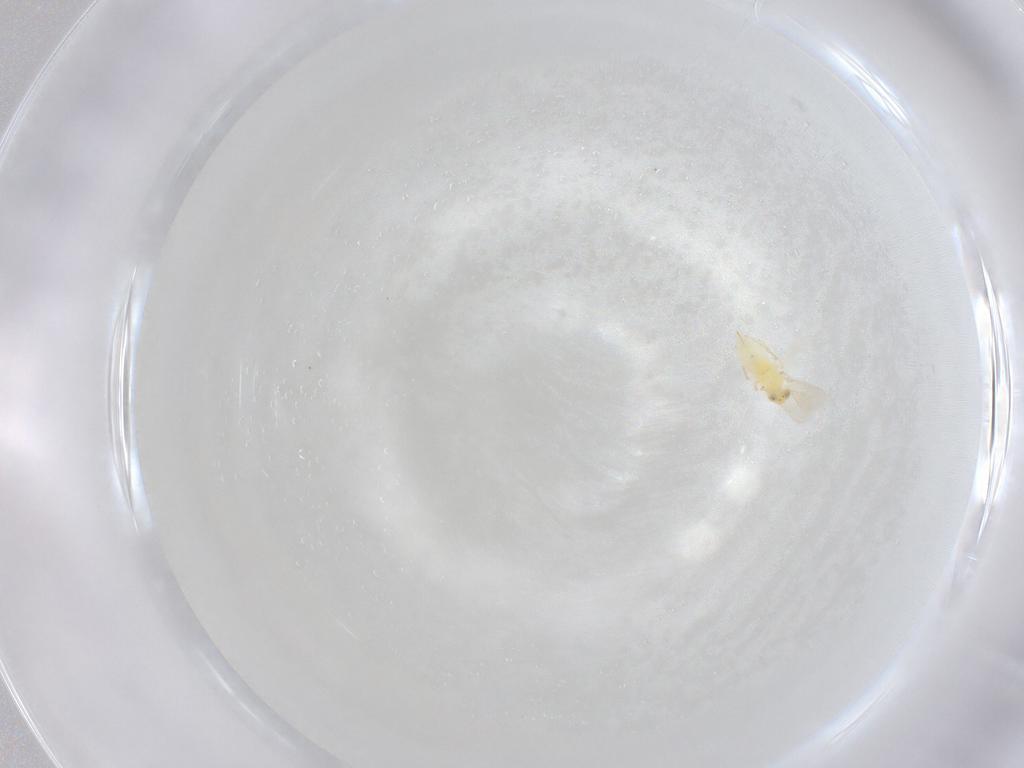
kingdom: Animalia
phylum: Arthropoda
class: Insecta
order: Hymenoptera
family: Aphelinidae
